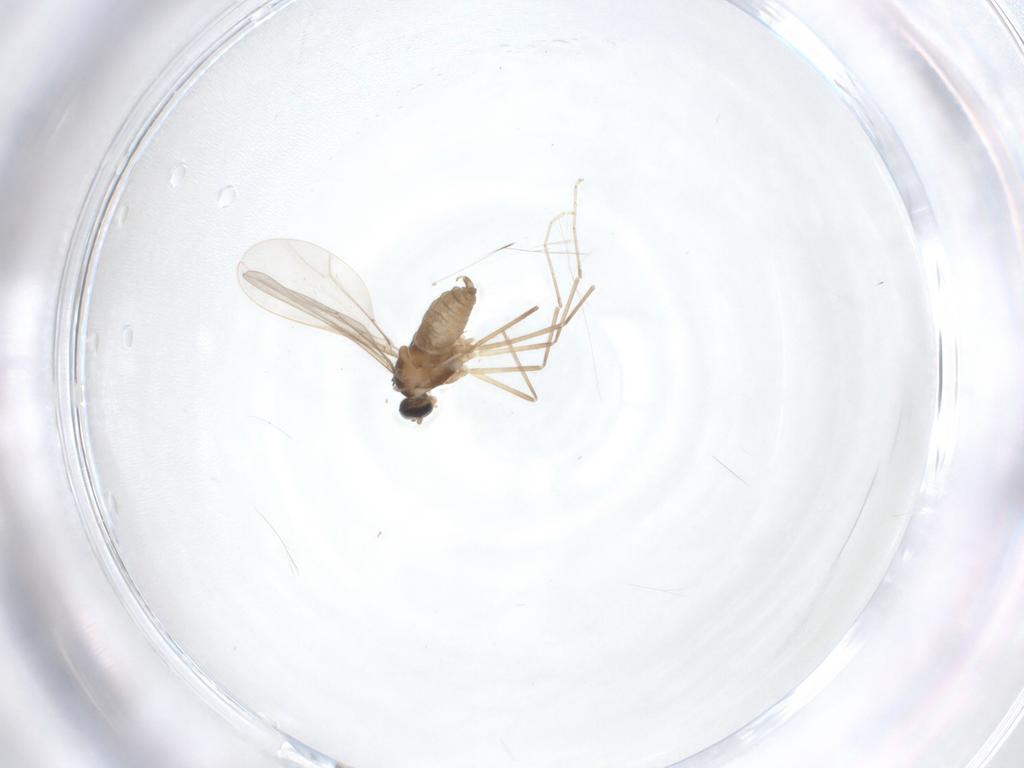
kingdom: Animalia
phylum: Arthropoda
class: Insecta
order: Diptera
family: Cecidomyiidae
